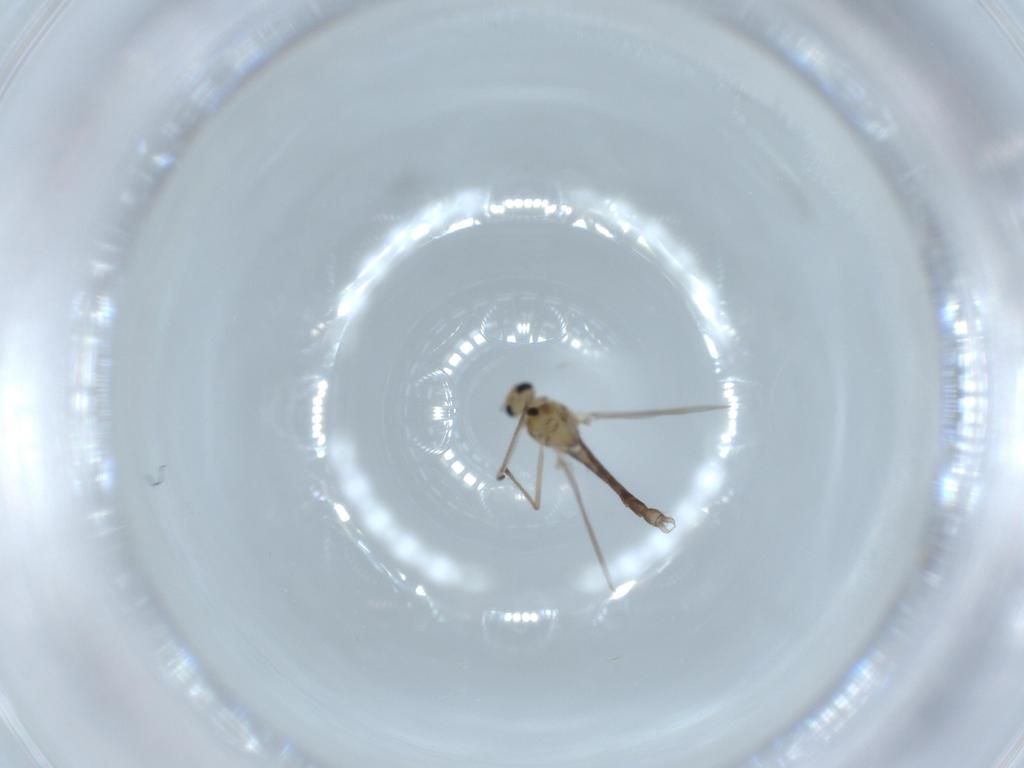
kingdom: Animalia
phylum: Arthropoda
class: Insecta
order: Diptera
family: Chironomidae
